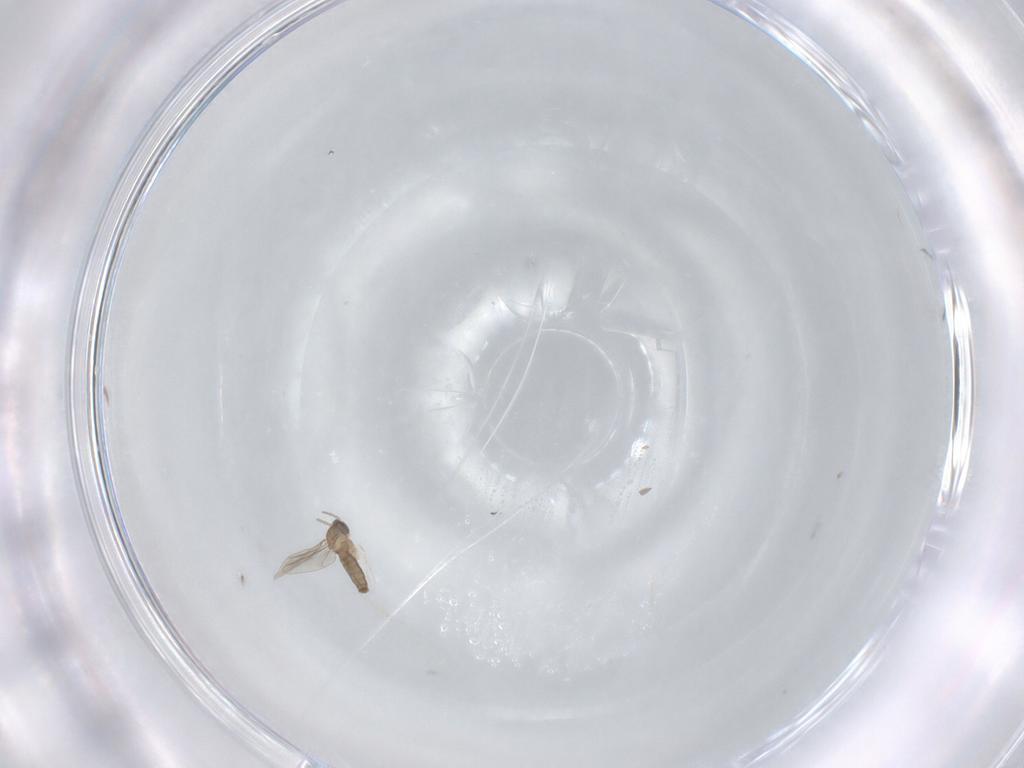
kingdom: Animalia
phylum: Arthropoda
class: Insecta
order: Diptera
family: Cecidomyiidae
